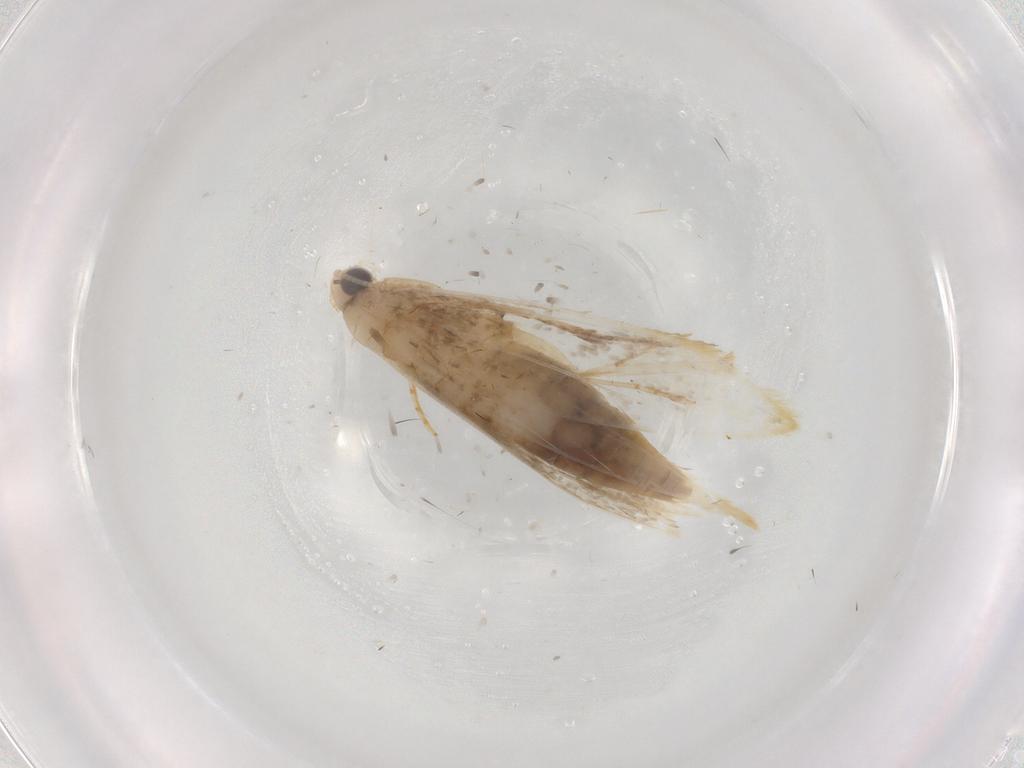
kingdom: Animalia
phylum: Arthropoda
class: Insecta
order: Lepidoptera
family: Tineidae
